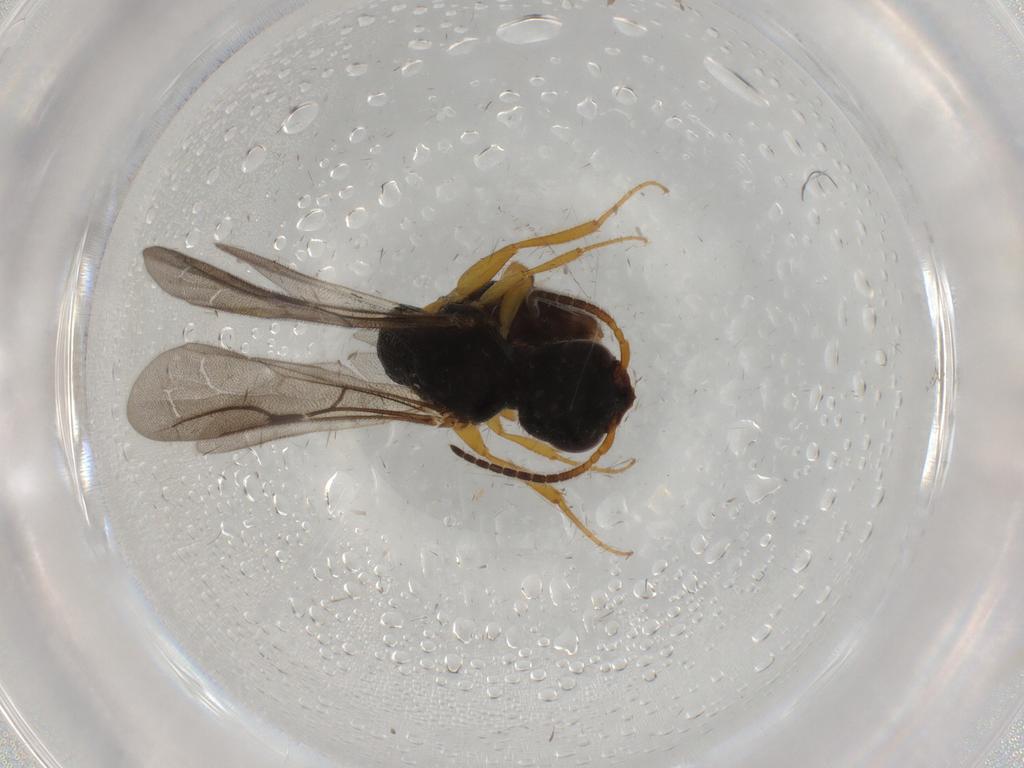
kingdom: Animalia
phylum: Arthropoda
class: Insecta
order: Hymenoptera
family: Bethylidae
